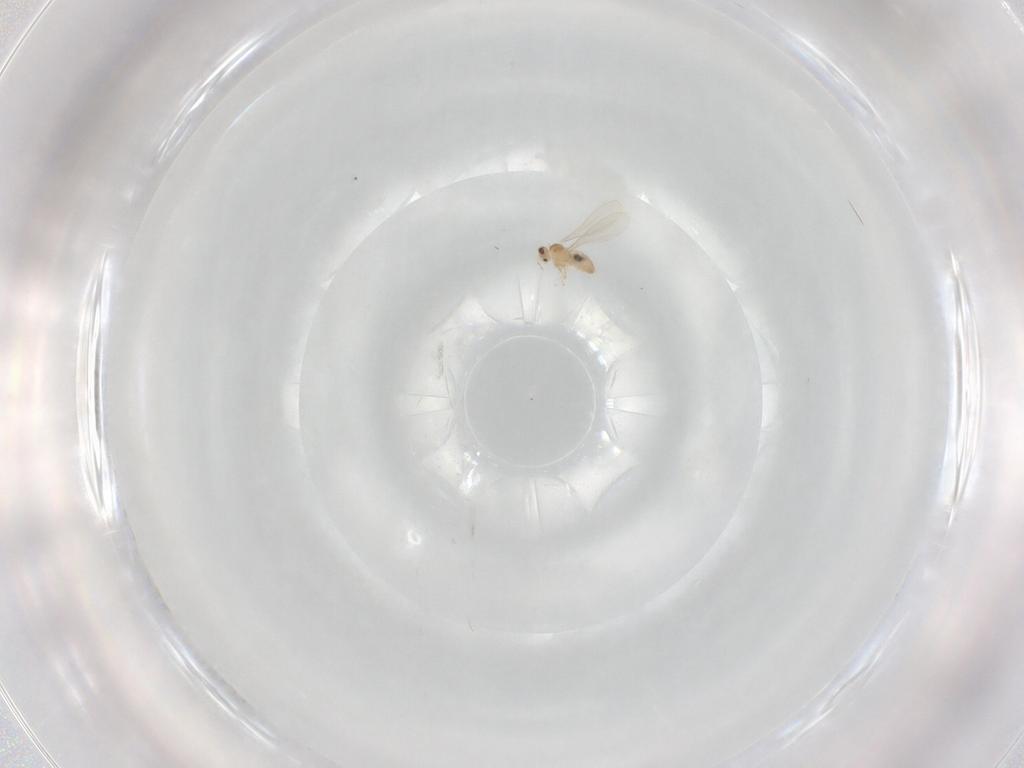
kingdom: Animalia
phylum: Arthropoda
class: Insecta
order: Diptera
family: Cecidomyiidae
